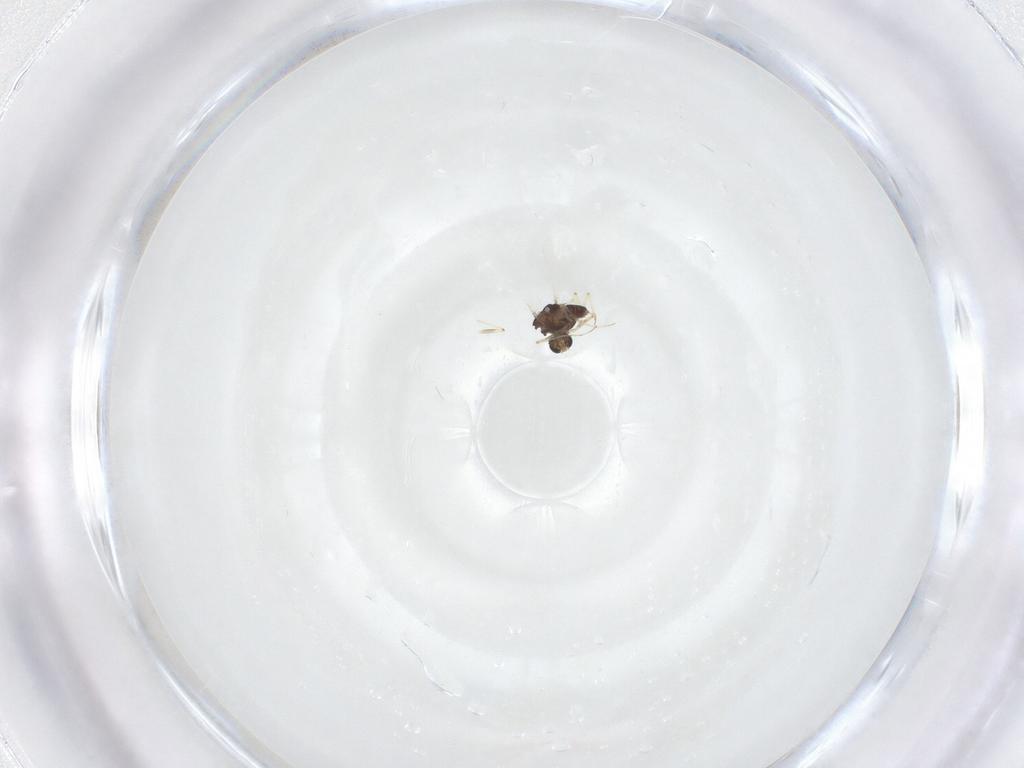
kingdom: Animalia
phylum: Arthropoda
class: Insecta
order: Diptera
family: Chironomidae
